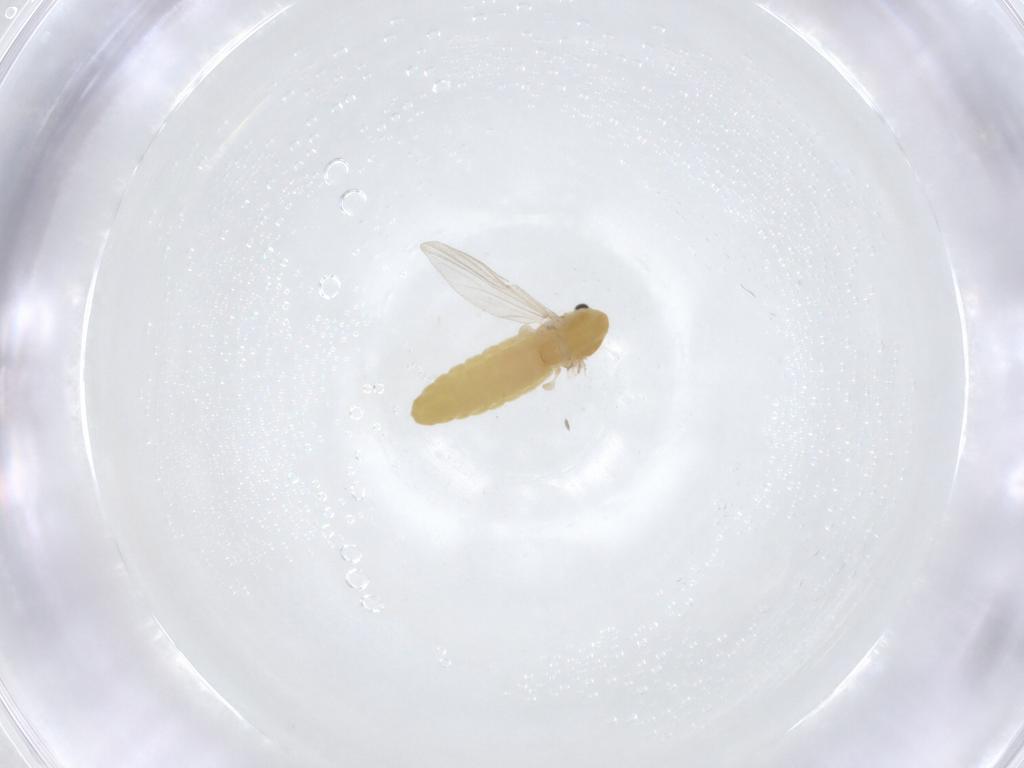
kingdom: Animalia
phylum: Arthropoda
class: Insecta
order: Diptera
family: Chironomidae
